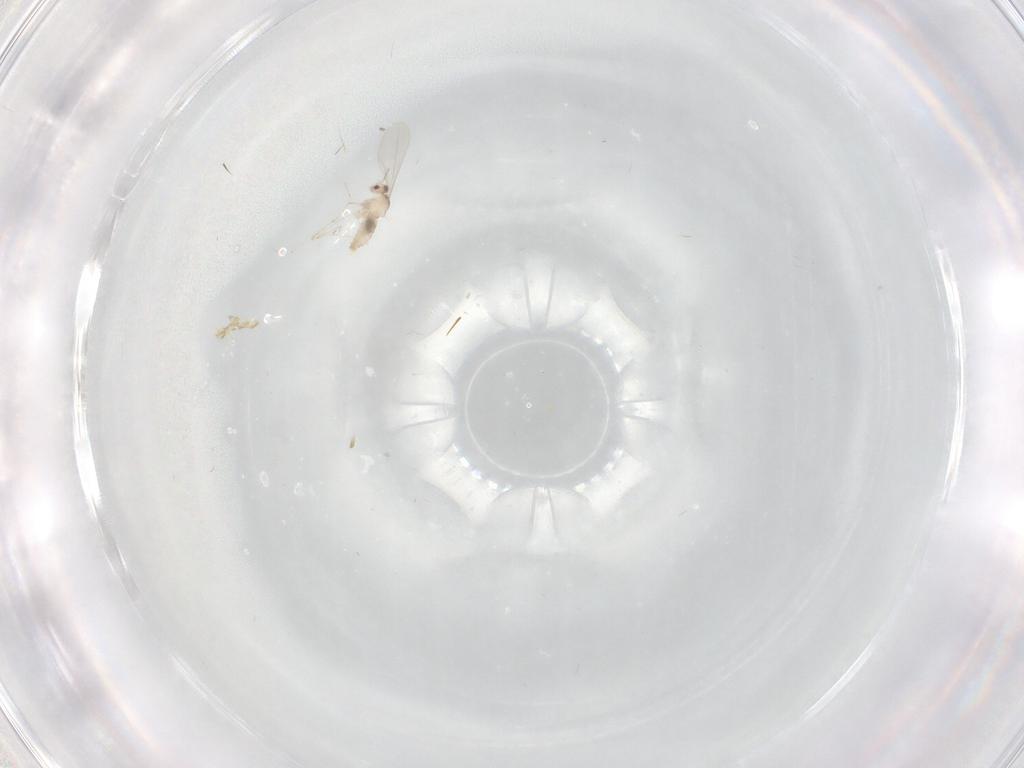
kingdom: Animalia
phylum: Arthropoda
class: Insecta
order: Diptera
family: Cecidomyiidae
